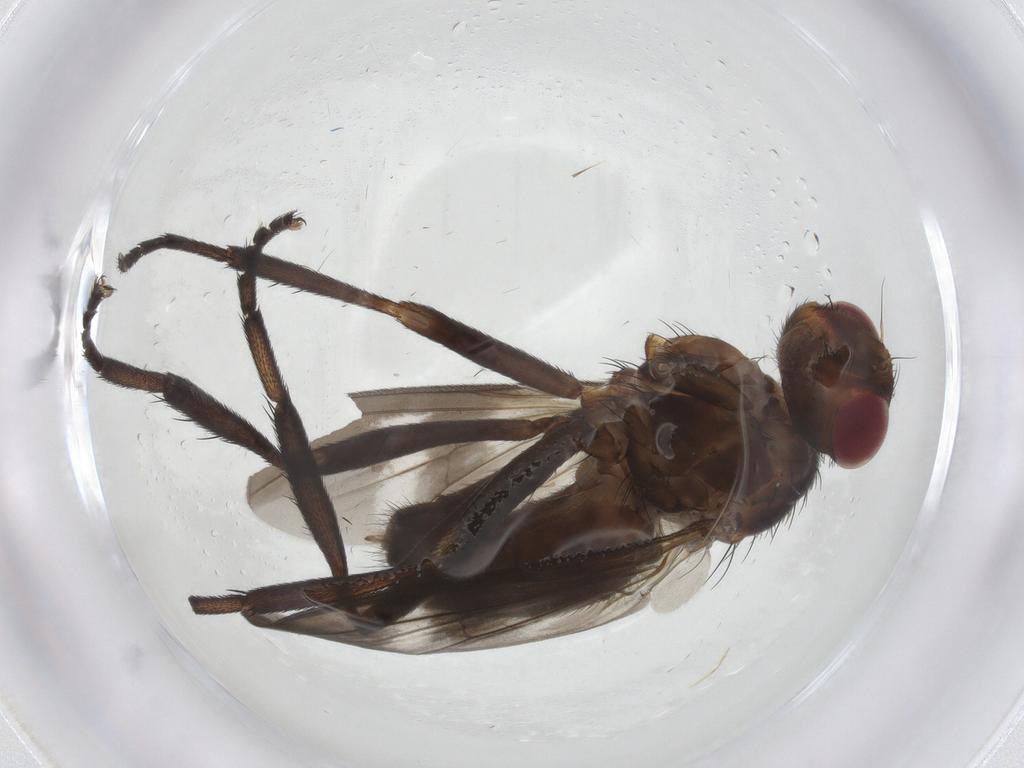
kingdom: Animalia
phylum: Arthropoda
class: Insecta
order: Diptera
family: Calliphoridae
